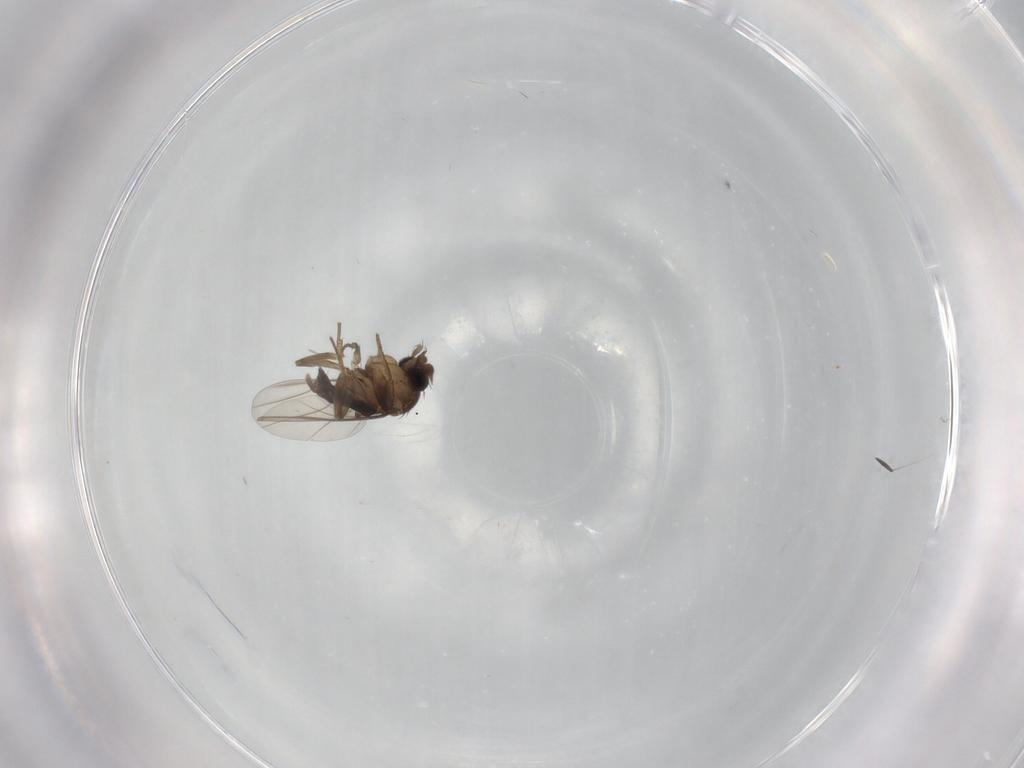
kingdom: Animalia
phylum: Arthropoda
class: Insecta
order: Diptera
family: Phoridae
